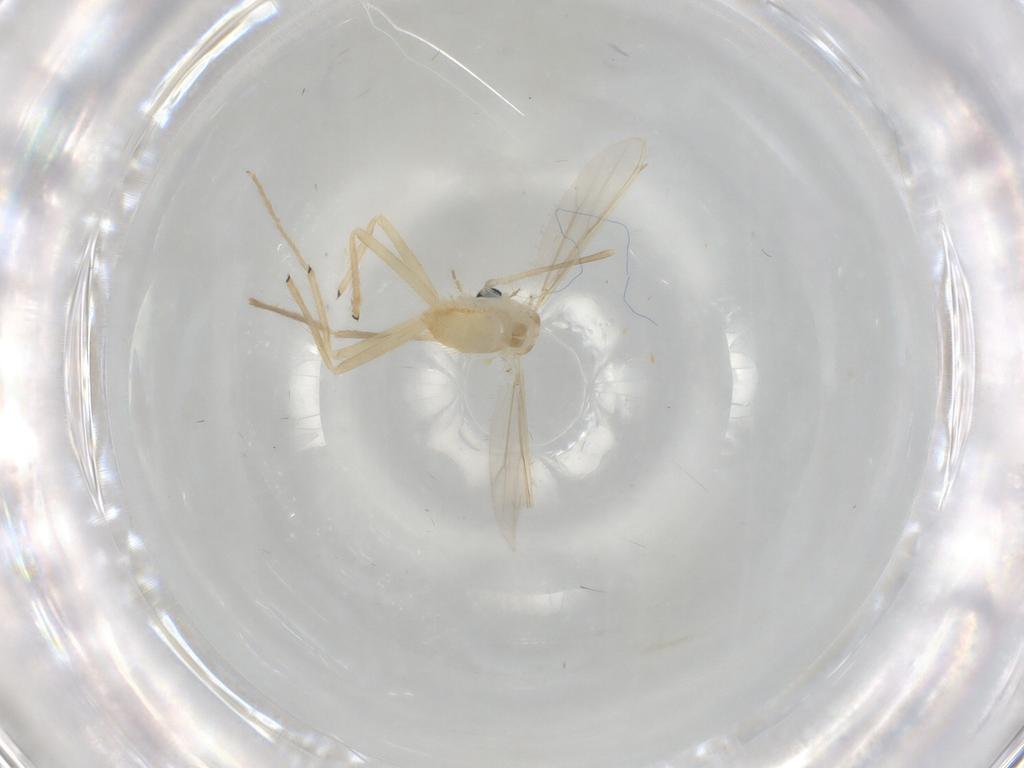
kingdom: Animalia
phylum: Arthropoda
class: Insecta
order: Diptera
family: Chironomidae
